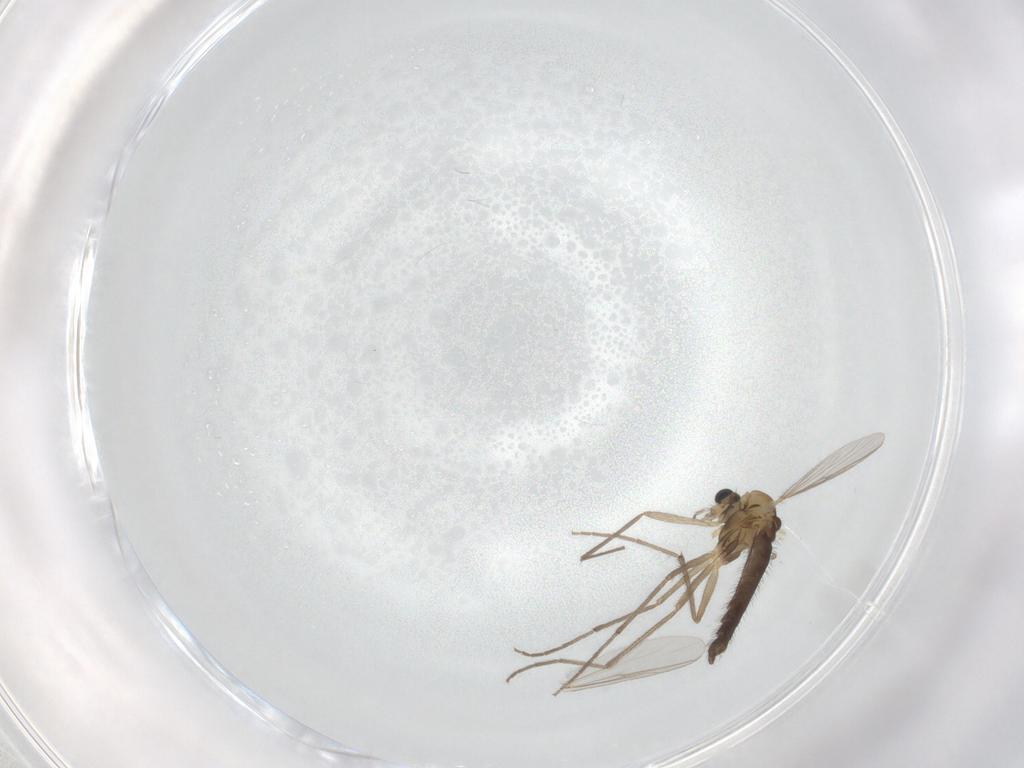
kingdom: Animalia
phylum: Arthropoda
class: Insecta
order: Diptera
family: Chironomidae
